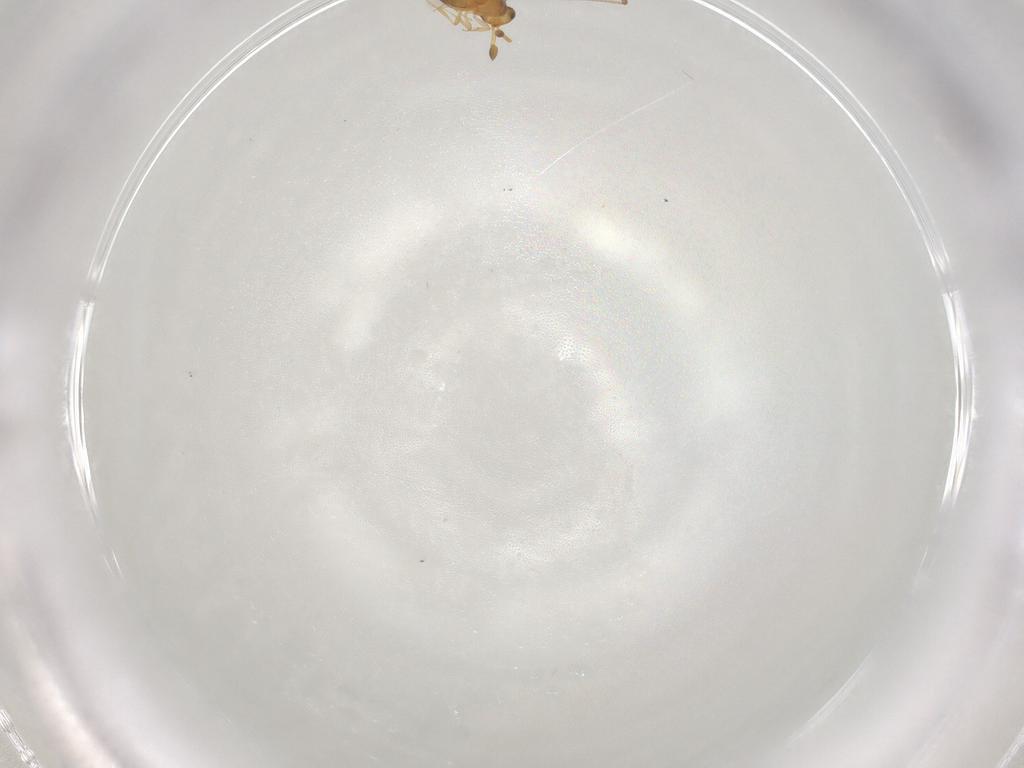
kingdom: Animalia
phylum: Arthropoda
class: Insecta
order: Hymenoptera
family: Scelionidae
